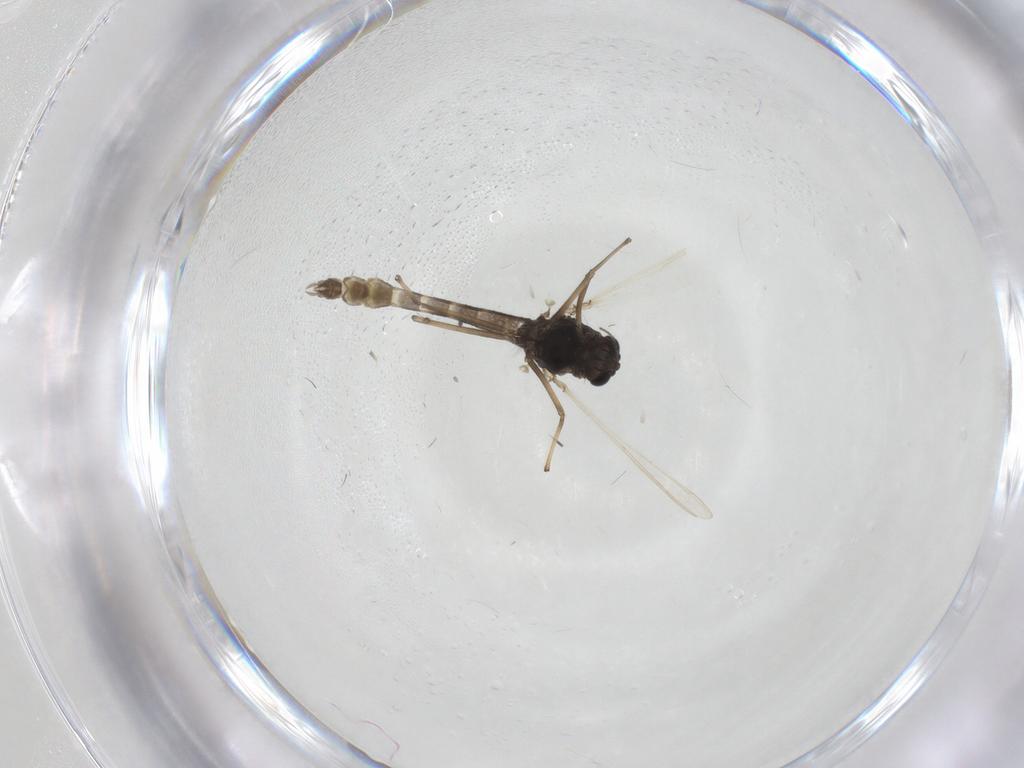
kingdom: Animalia
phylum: Arthropoda
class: Insecta
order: Diptera
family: Chironomidae
